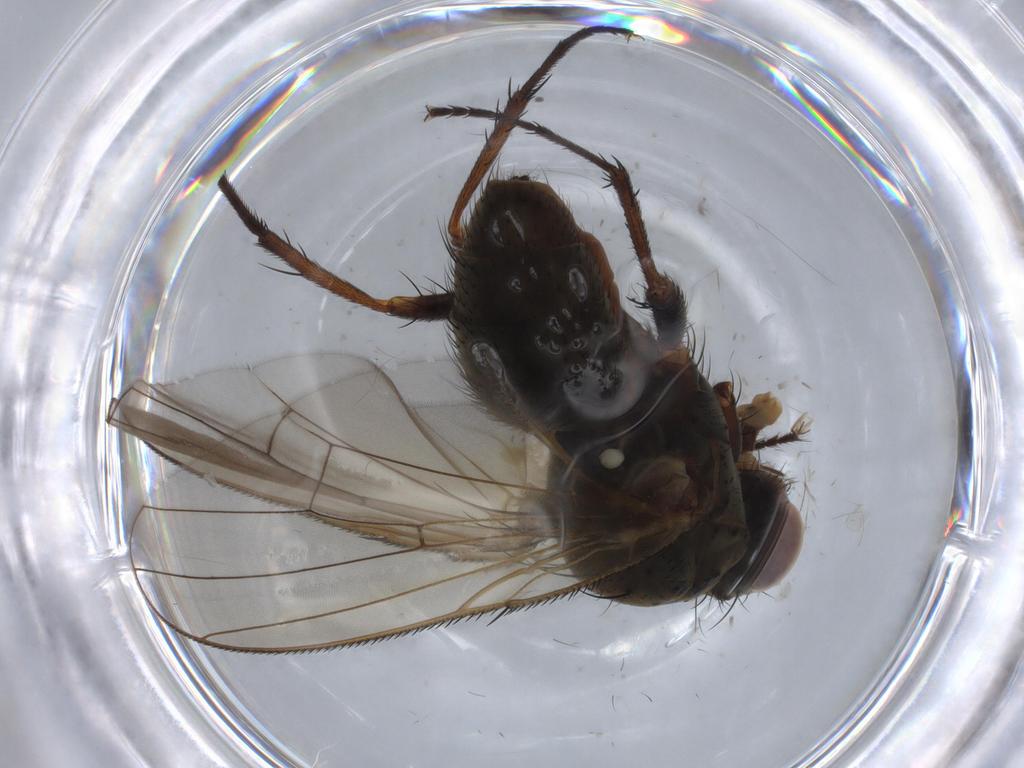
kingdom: Animalia
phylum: Arthropoda
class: Insecta
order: Diptera
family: Anthomyiidae
